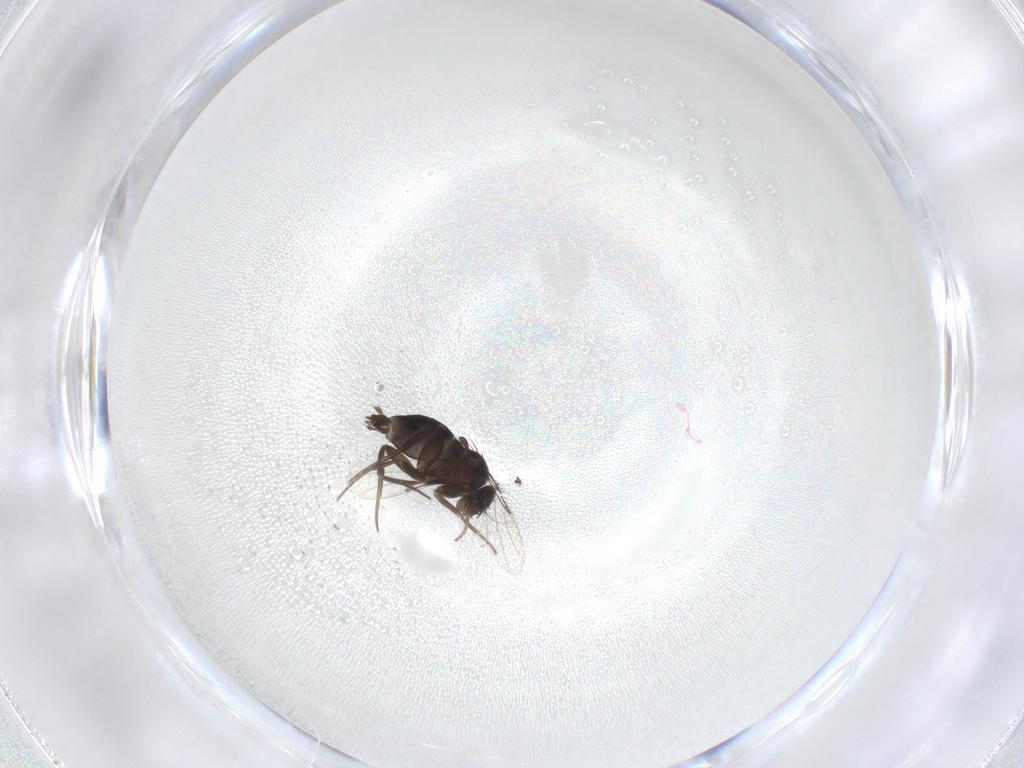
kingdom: Animalia
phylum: Arthropoda
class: Insecta
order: Diptera
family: Phoridae
